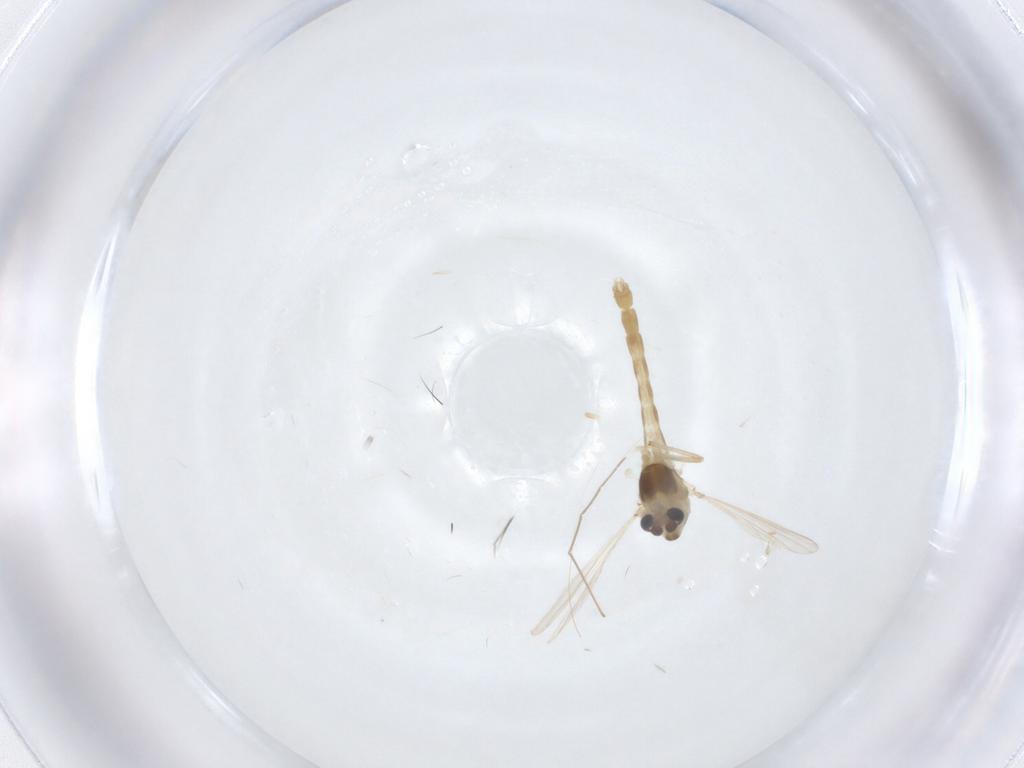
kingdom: Animalia
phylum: Arthropoda
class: Insecta
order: Diptera
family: Chironomidae
